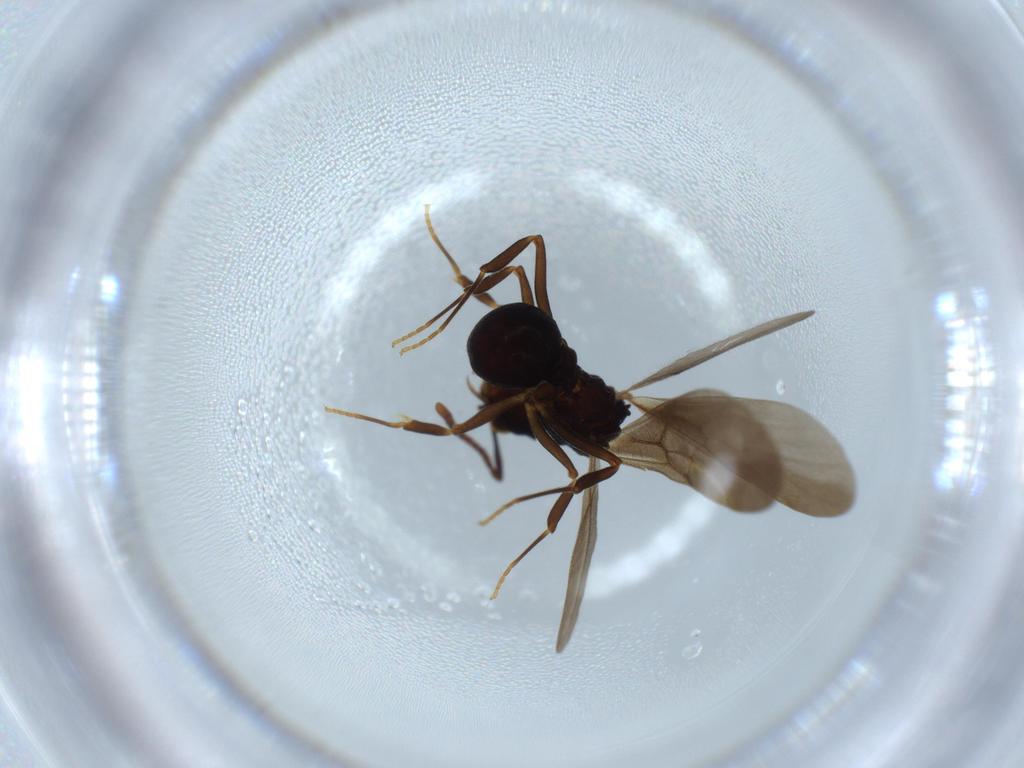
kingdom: Animalia
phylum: Arthropoda
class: Insecta
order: Hymenoptera
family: Formicidae
